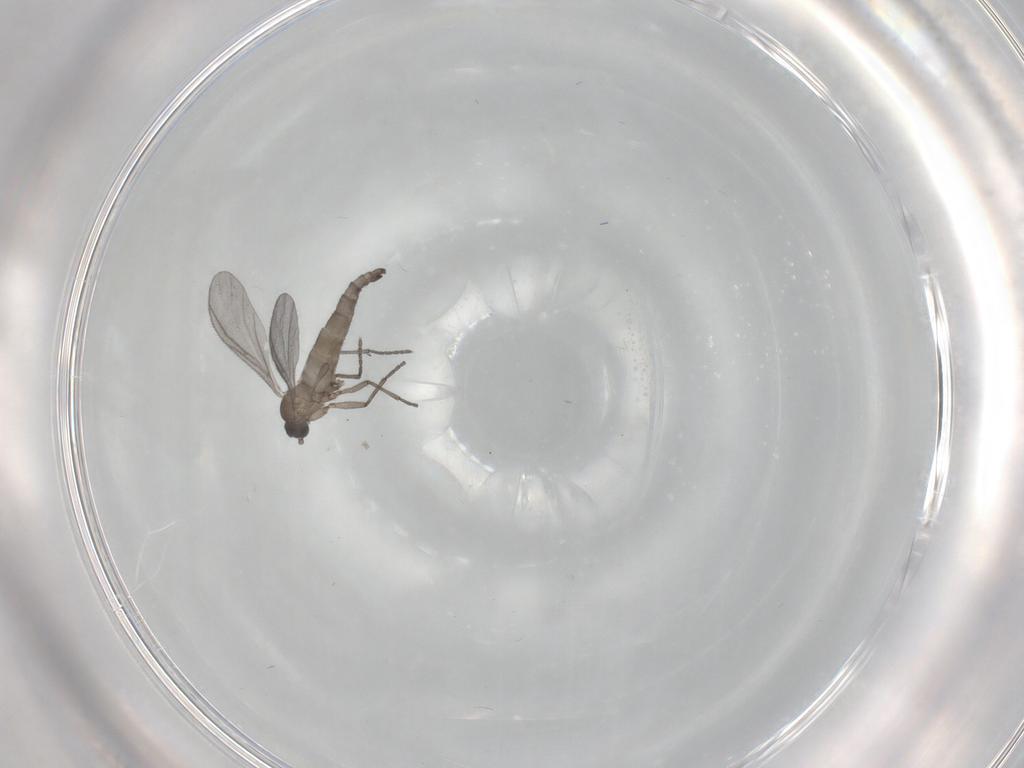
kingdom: Animalia
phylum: Arthropoda
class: Insecta
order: Diptera
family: Sciaridae
